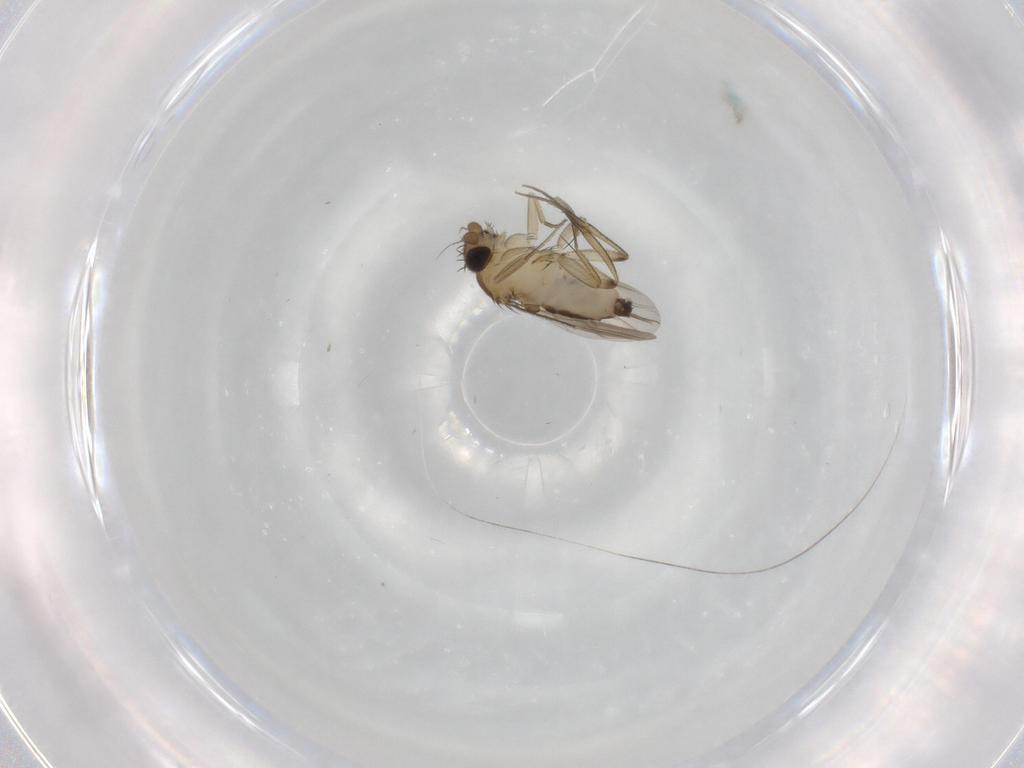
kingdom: Animalia
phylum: Arthropoda
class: Insecta
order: Diptera
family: Phoridae
